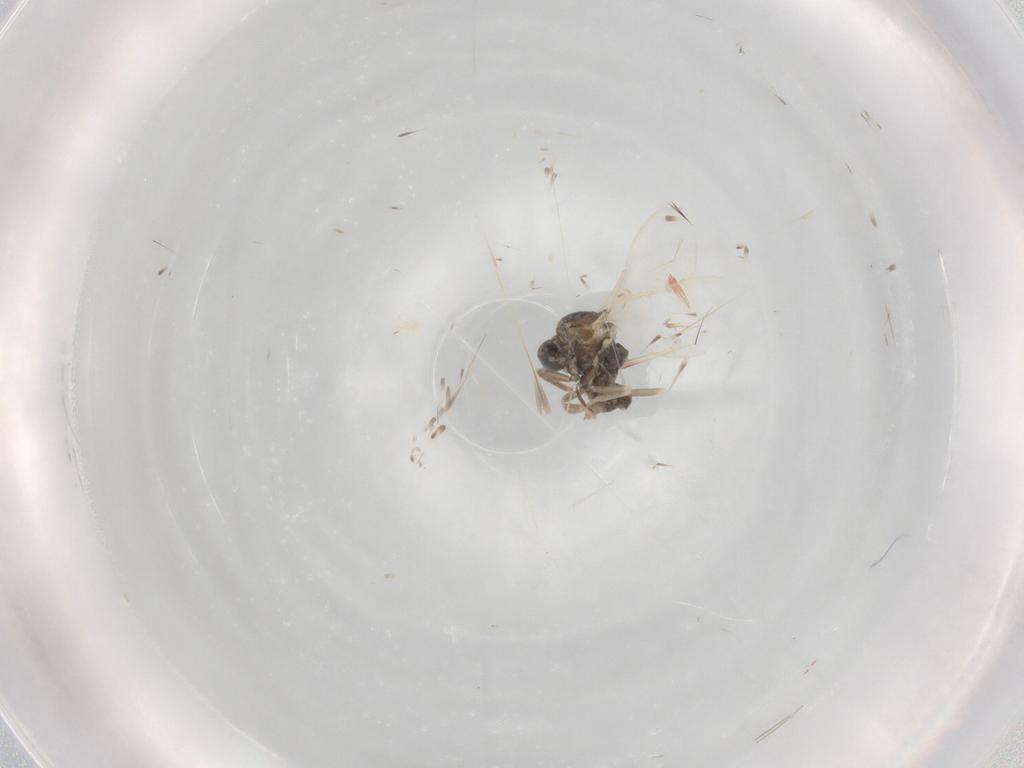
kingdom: Animalia
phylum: Arthropoda
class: Insecta
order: Diptera
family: Cecidomyiidae
